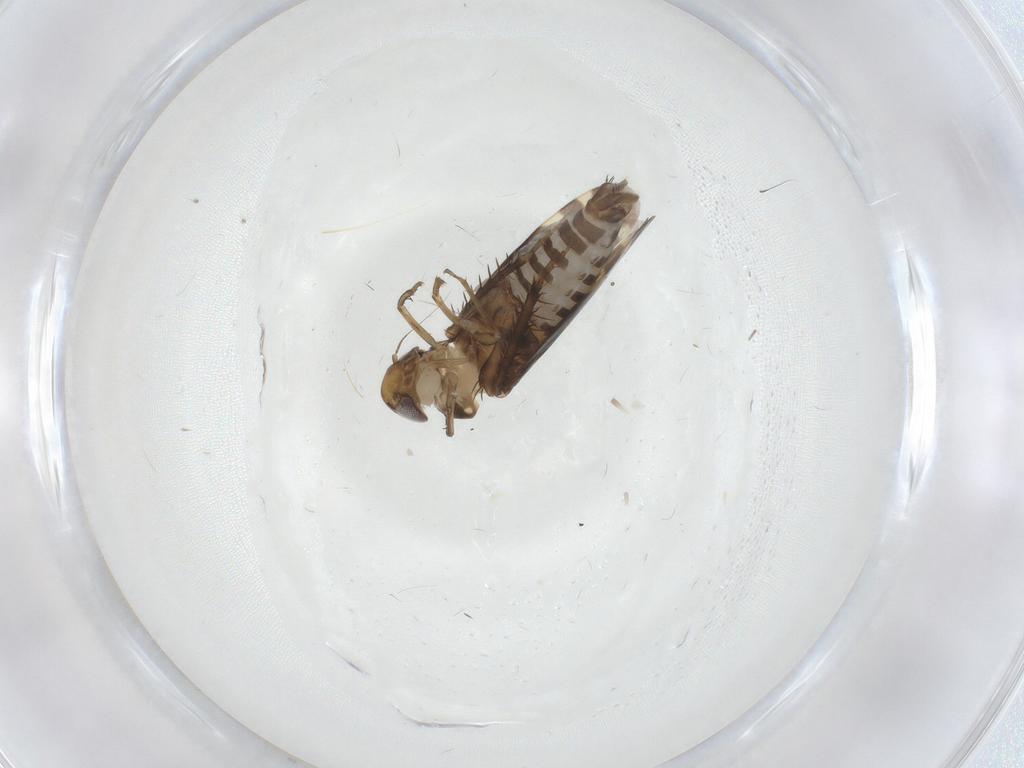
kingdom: Animalia
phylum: Arthropoda
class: Insecta
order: Hemiptera
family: Cicadellidae
